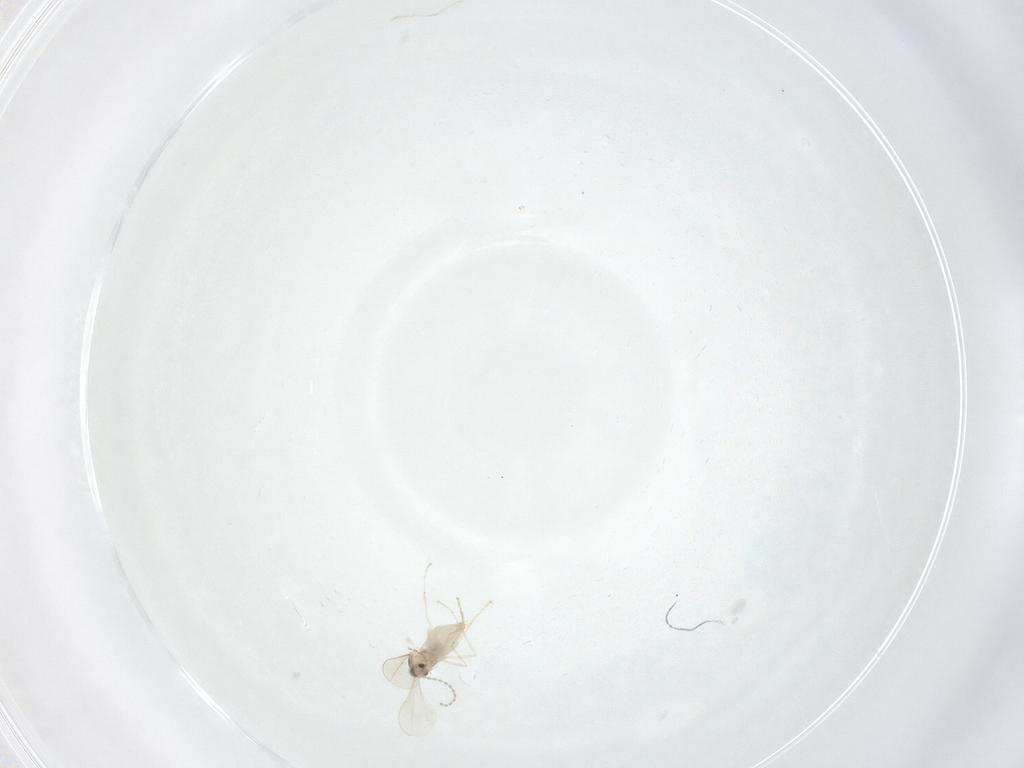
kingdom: Animalia
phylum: Arthropoda
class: Insecta
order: Diptera
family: Cecidomyiidae
